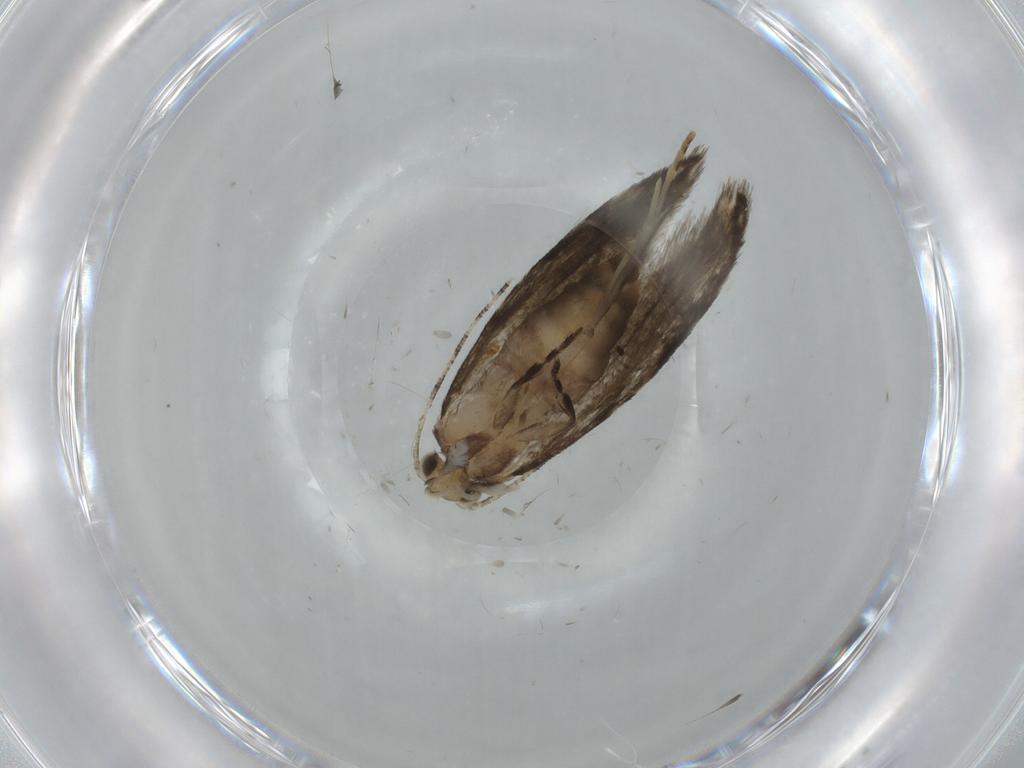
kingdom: Animalia
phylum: Arthropoda
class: Insecta
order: Lepidoptera
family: Tineidae
